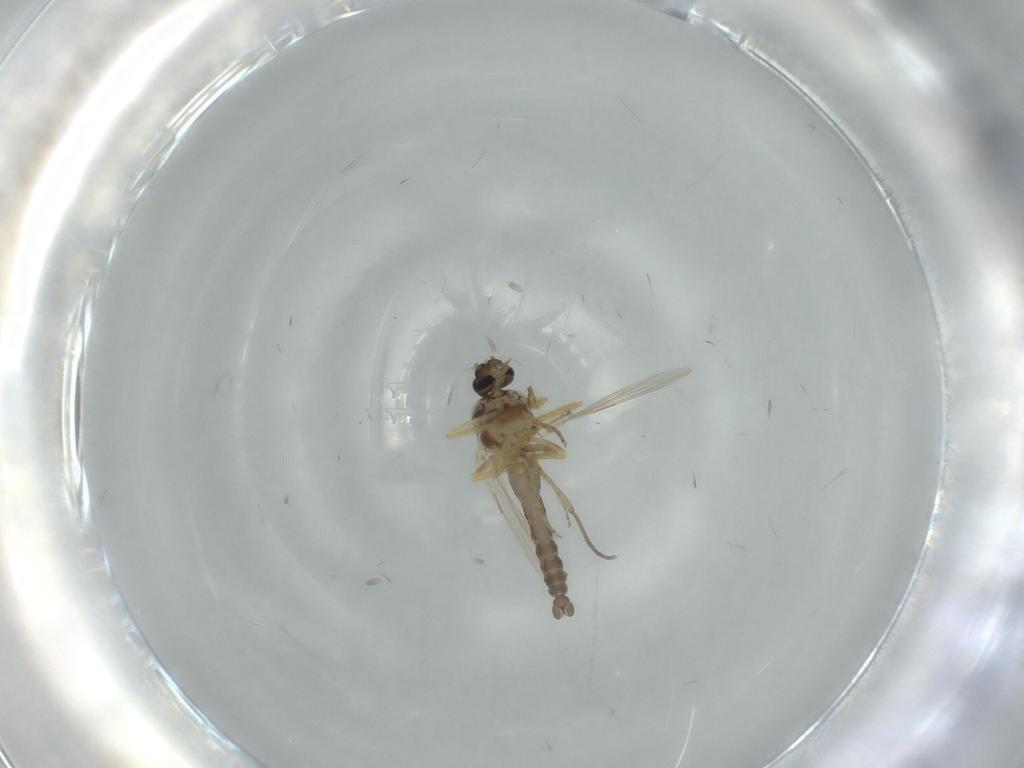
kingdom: Animalia
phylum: Arthropoda
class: Insecta
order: Diptera
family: Ceratopogonidae
